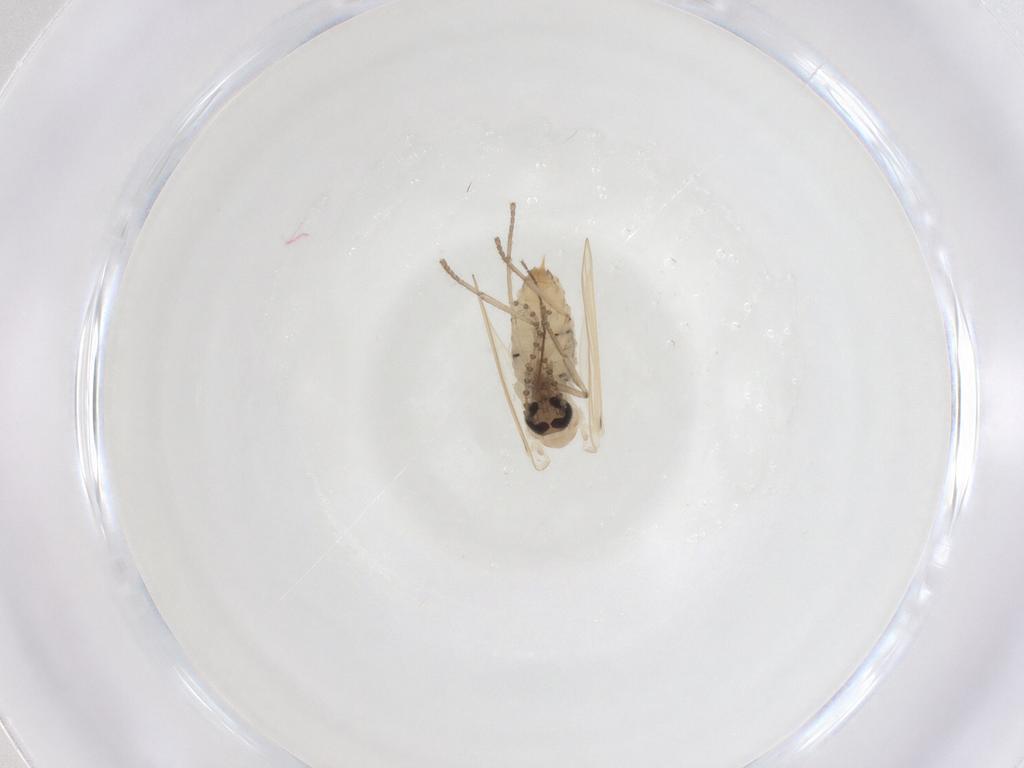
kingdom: Animalia
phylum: Arthropoda
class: Insecta
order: Diptera
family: Psychodidae
